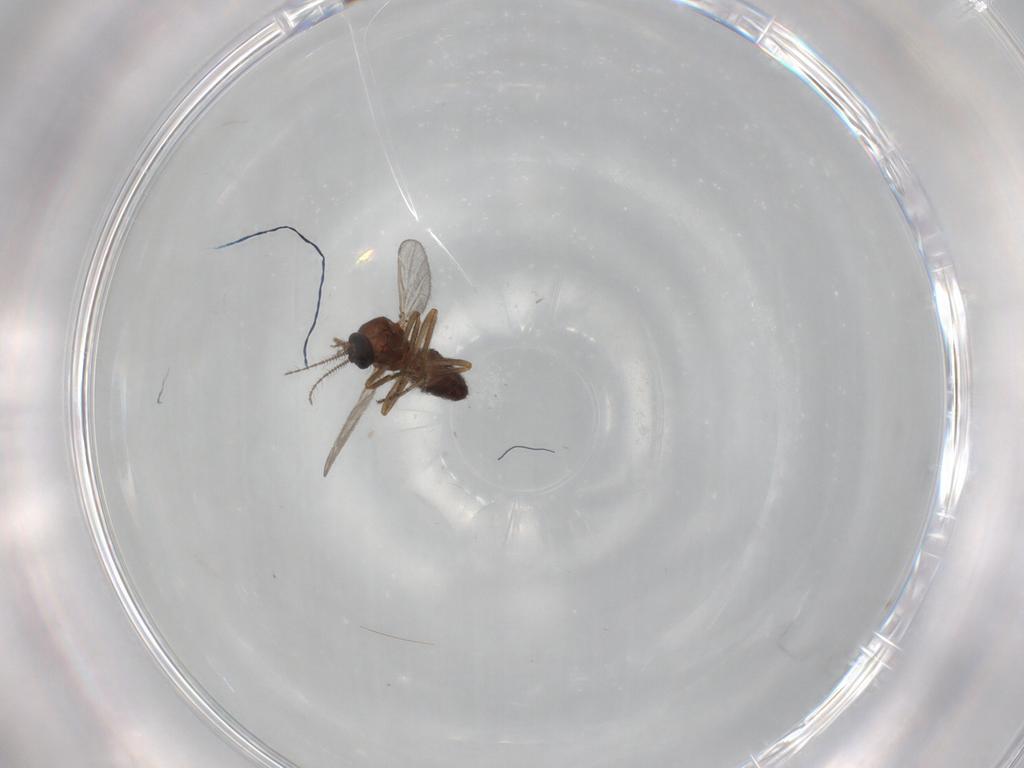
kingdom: Animalia
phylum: Arthropoda
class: Insecta
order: Diptera
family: Ceratopogonidae
